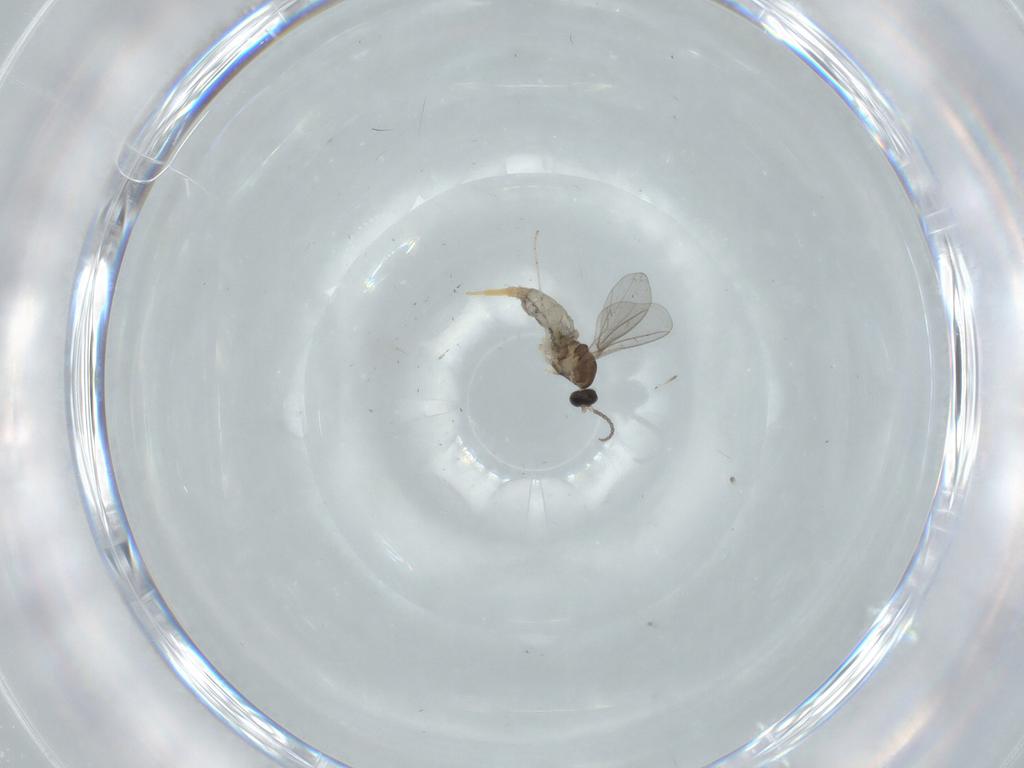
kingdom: Animalia
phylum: Arthropoda
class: Insecta
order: Diptera
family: Cecidomyiidae
